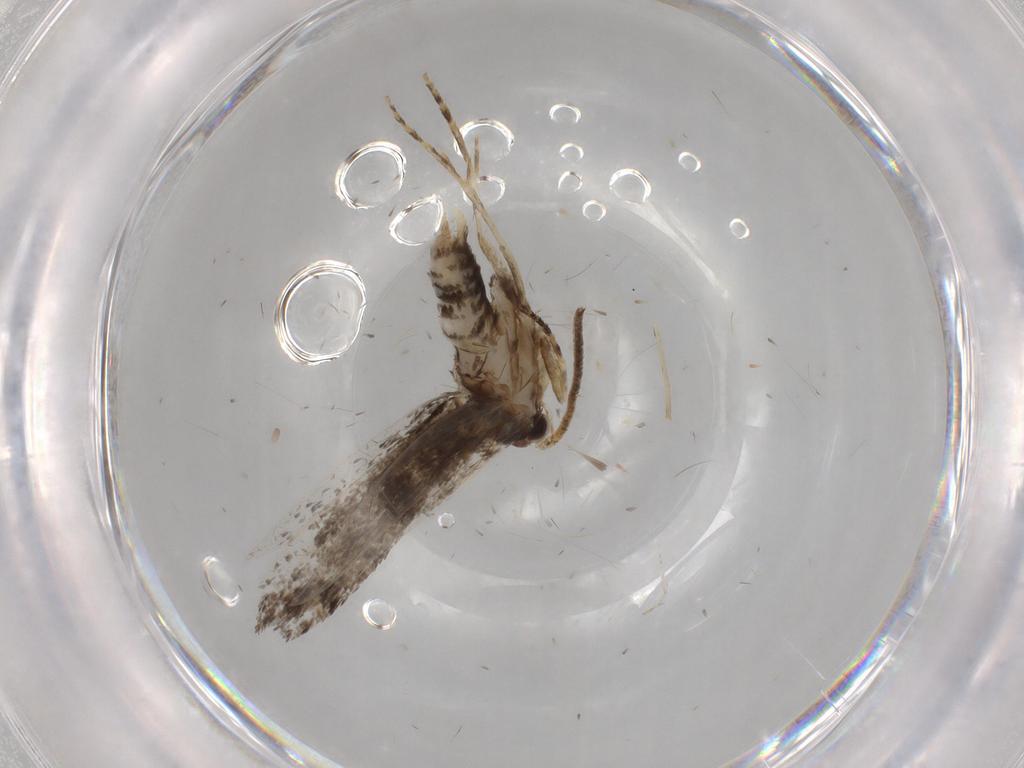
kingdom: Animalia
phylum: Arthropoda
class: Insecta
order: Lepidoptera
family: Tineidae
